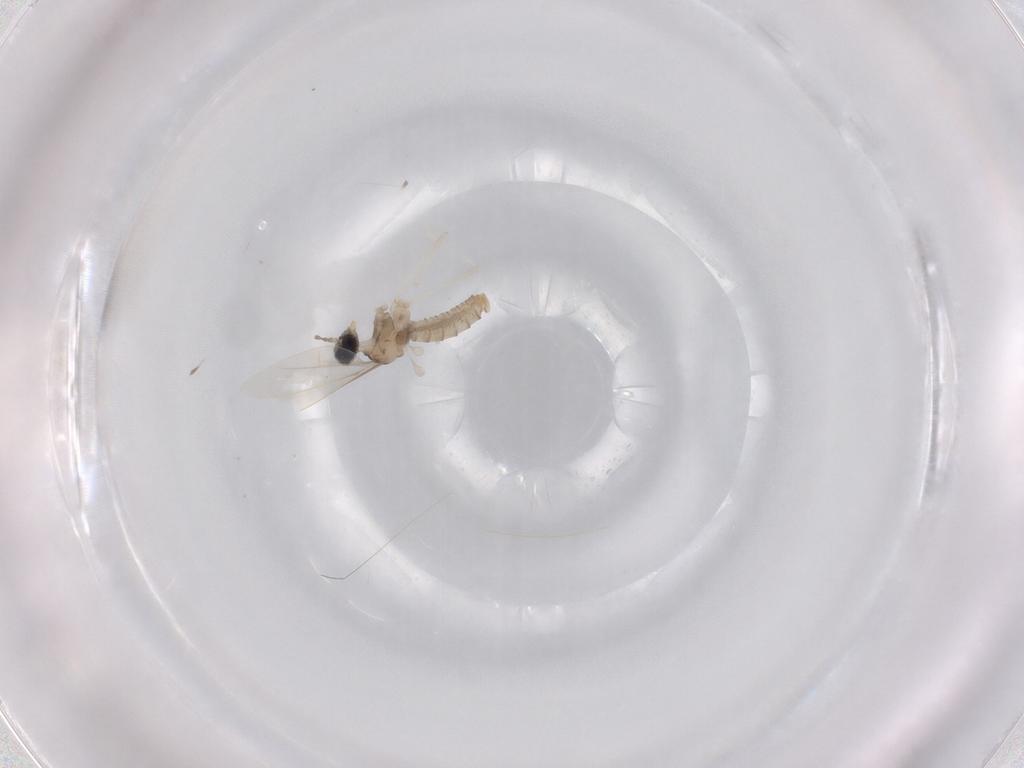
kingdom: Animalia
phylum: Arthropoda
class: Insecta
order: Diptera
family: Cecidomyiidae
